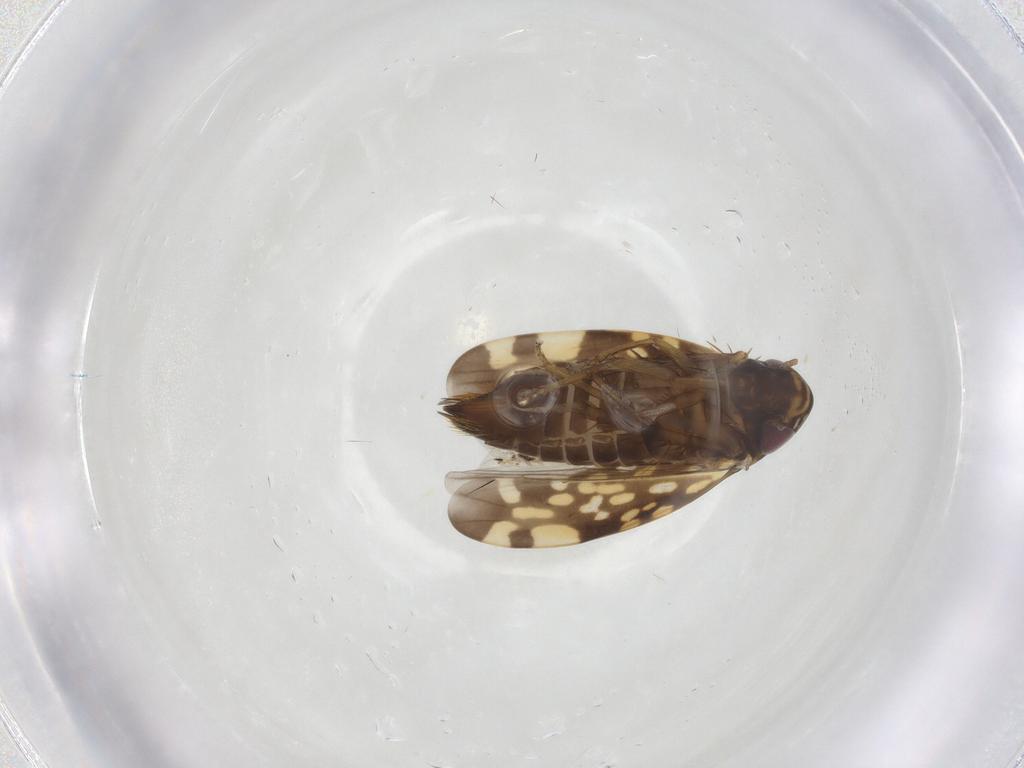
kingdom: Animalia
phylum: Arthropoda
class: Insecta
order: Hemiptera
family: Cicadellidae
